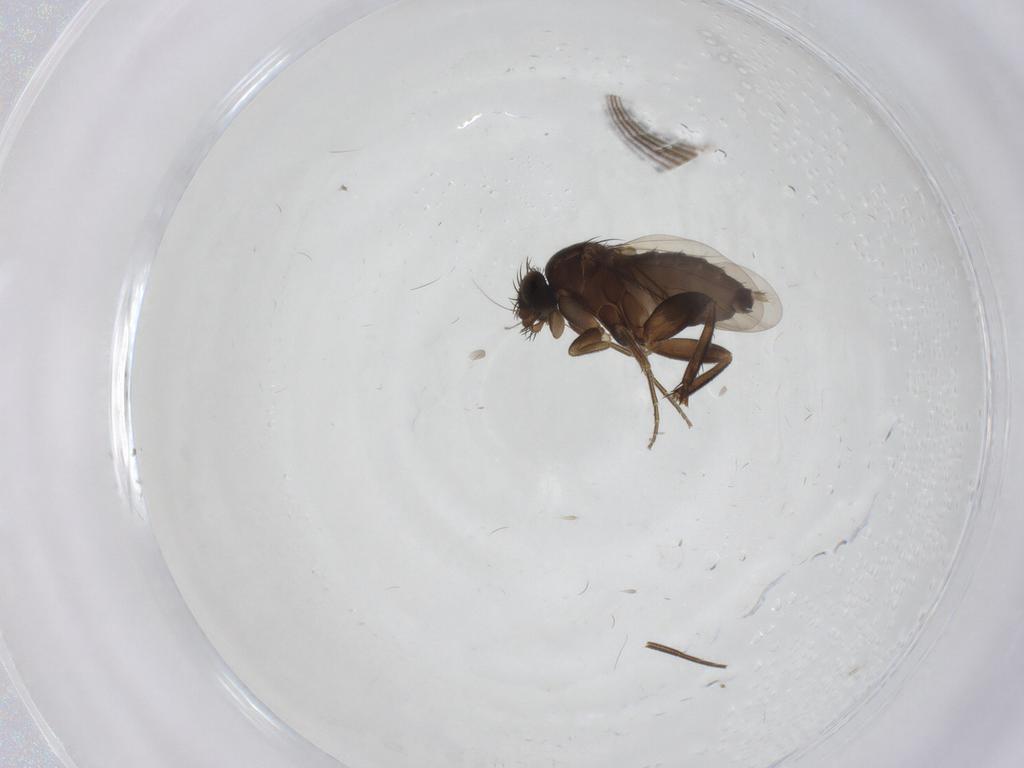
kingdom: Animalia
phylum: Arthropoda
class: Insecta
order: Diptera
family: Phoridae
